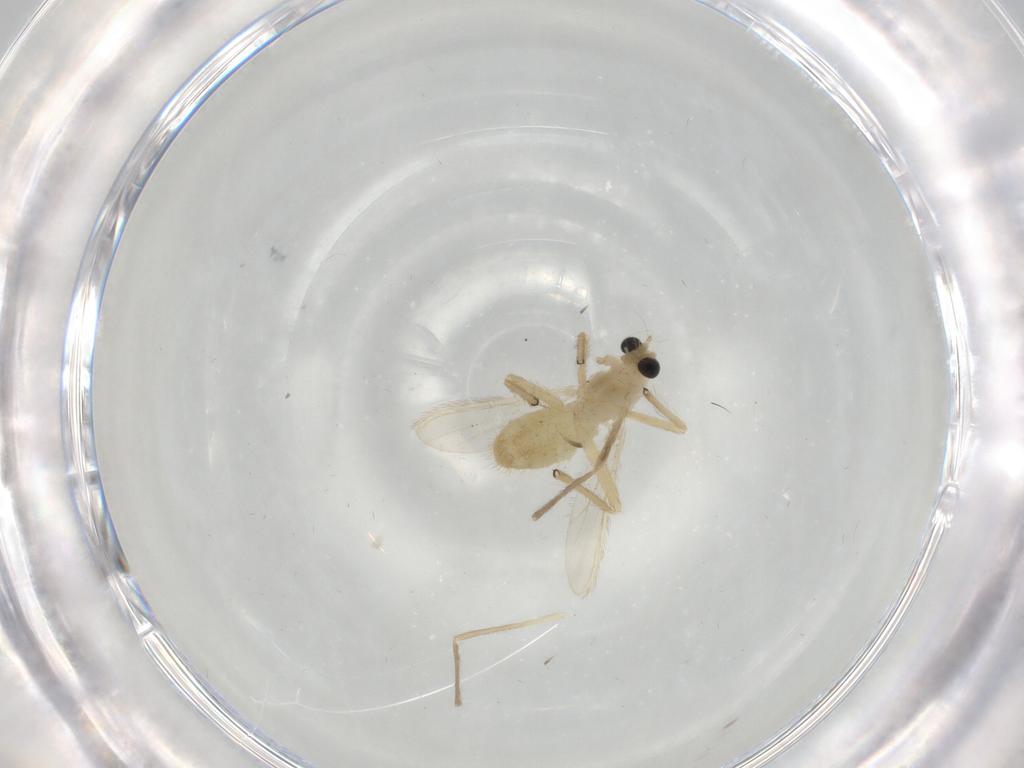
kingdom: Animalia
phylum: Arthropoda
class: Insecta
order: Diptera
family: Chironomidae
